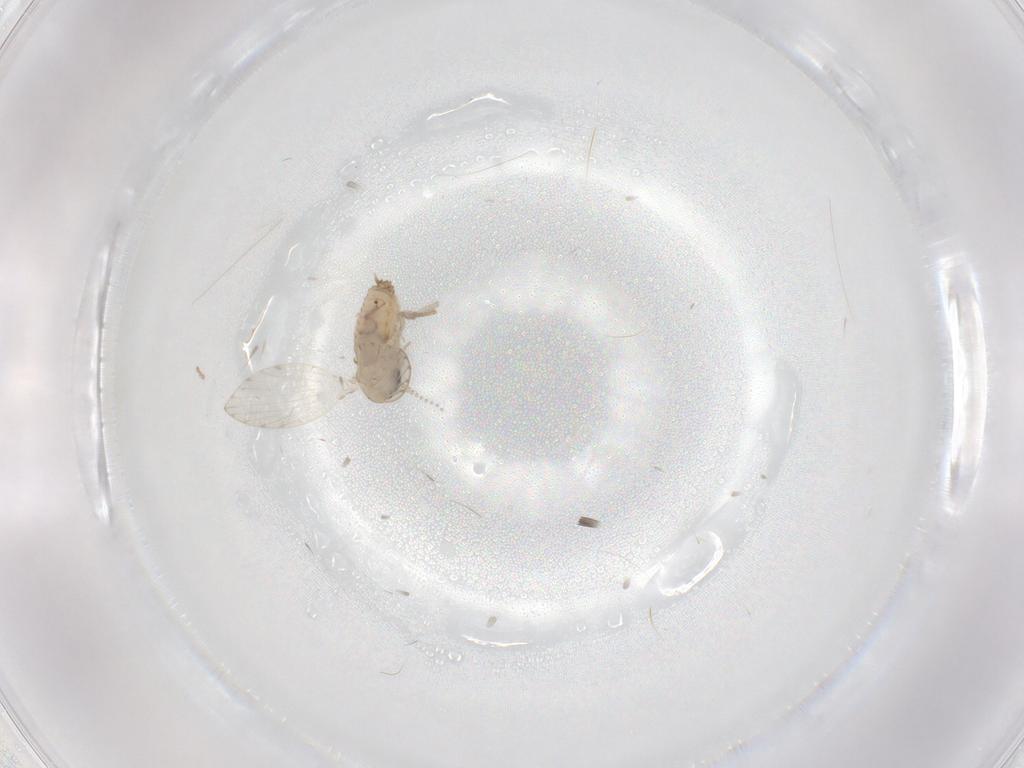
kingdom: Animalia
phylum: Arthropoda
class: Insecta
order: Diptera
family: Psychodidae
